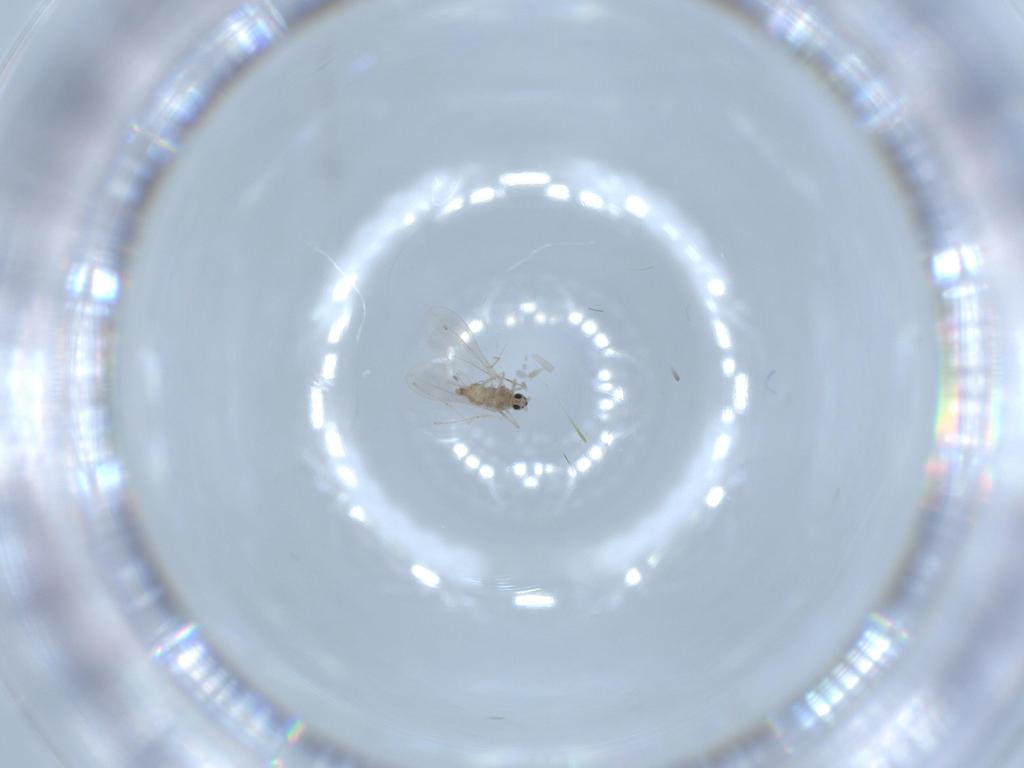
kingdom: Animalia
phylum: Arthropoda
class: Insecta
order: Diptera
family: Cecidomyiidae
